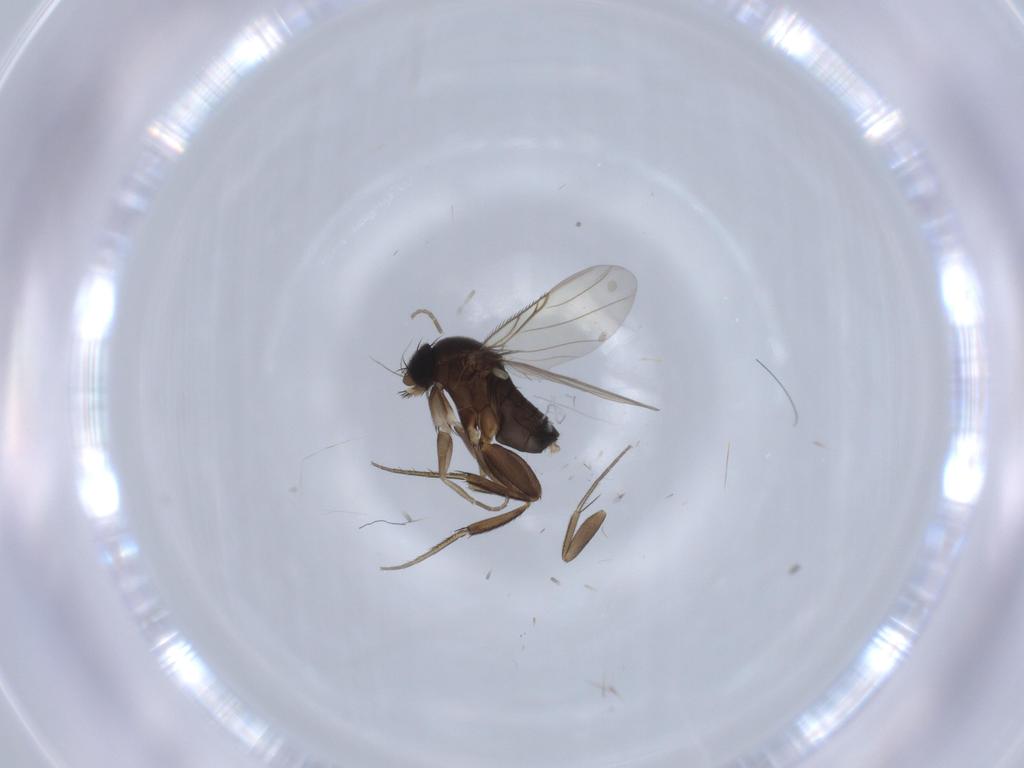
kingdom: Animalia
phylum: Arthropoda
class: Insecta
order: Diptera
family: Phoridae
